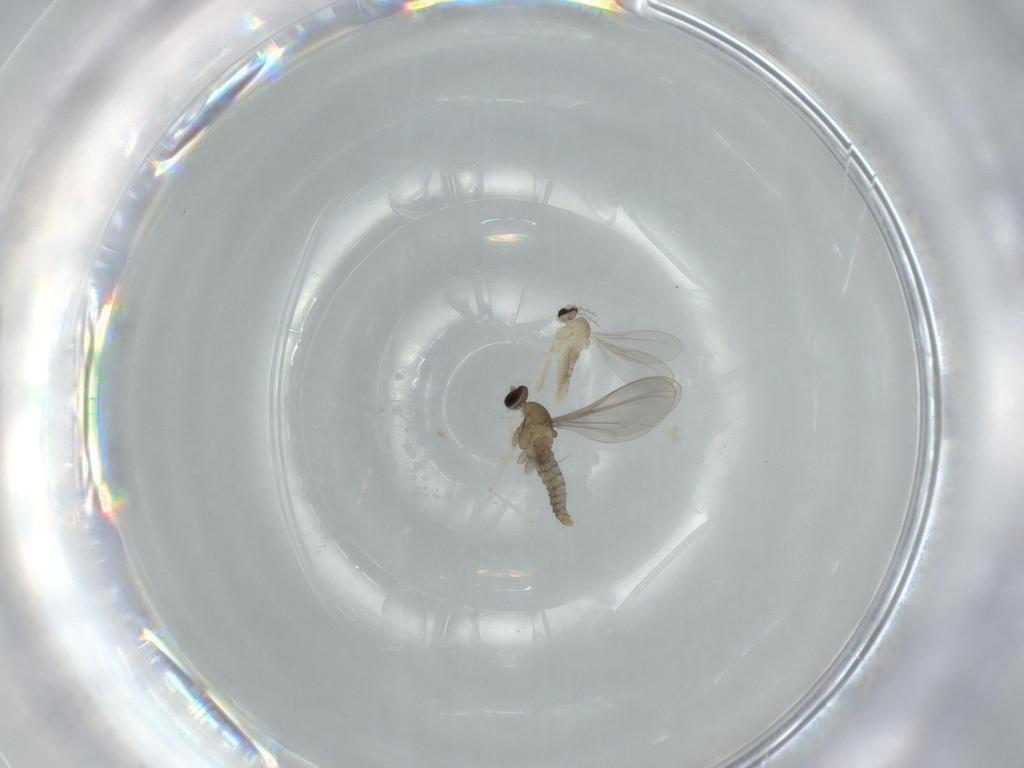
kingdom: Animalia
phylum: Arthropoda
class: Insecta
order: Diptera
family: Cecidomyiidae
